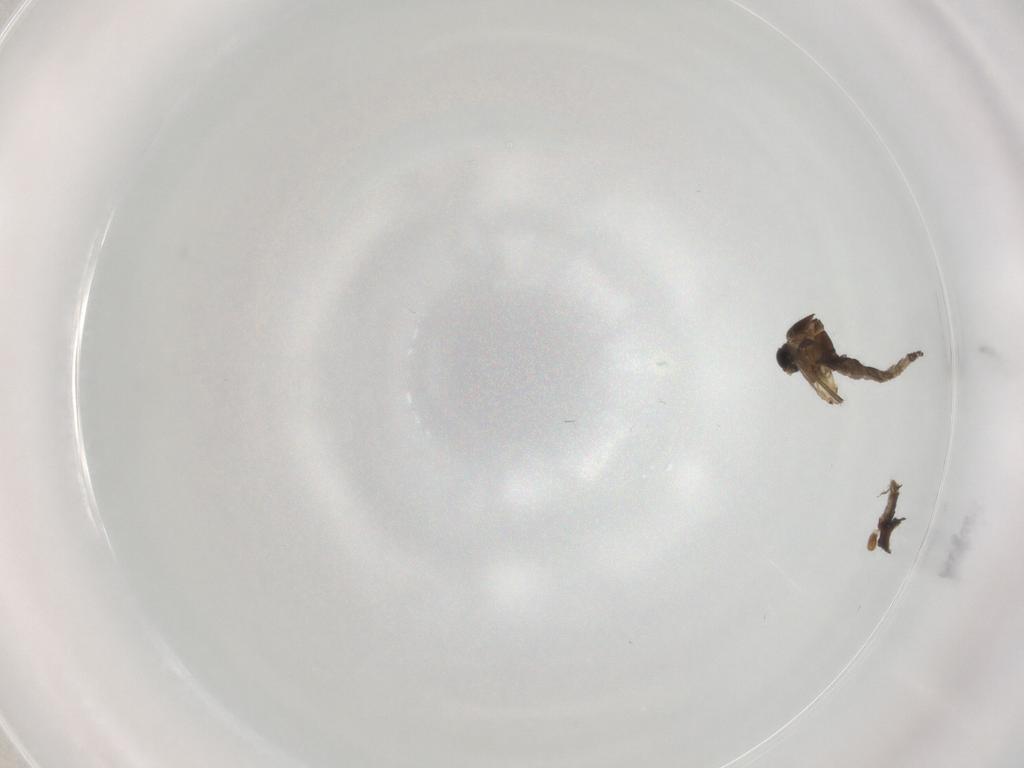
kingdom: Animalia
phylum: Arthropoda
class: Insecta
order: Diptera
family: Sciaridae
